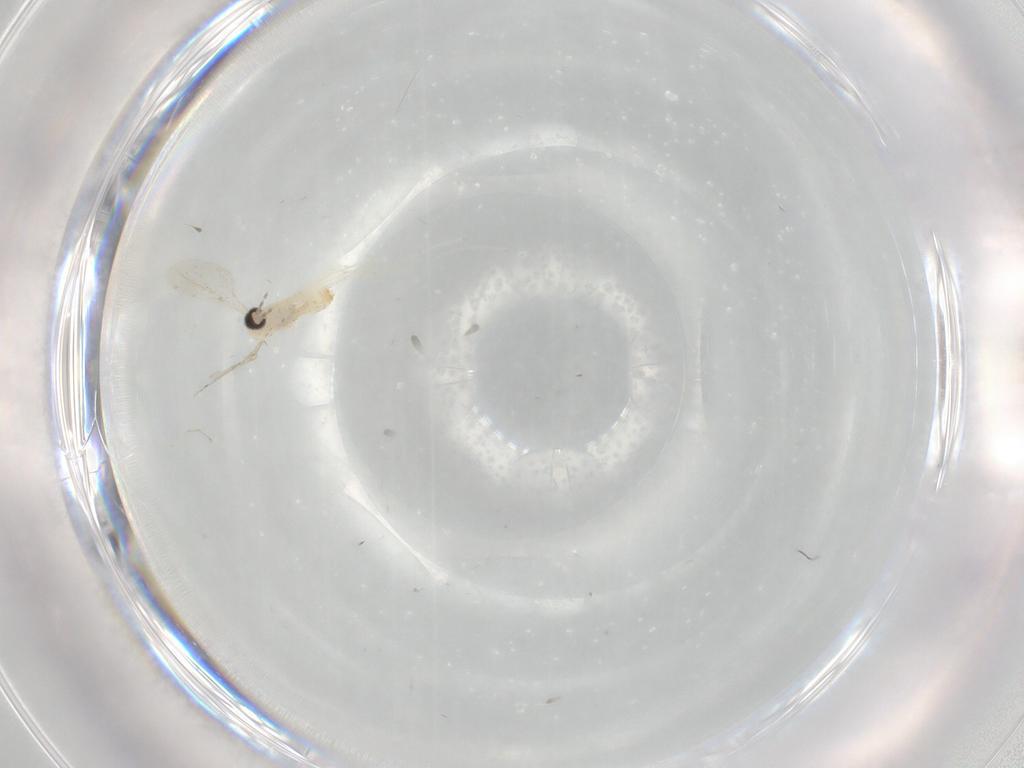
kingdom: Animalia
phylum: Arthropoda
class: Insecta
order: Diptera
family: Cecidomyiidae
